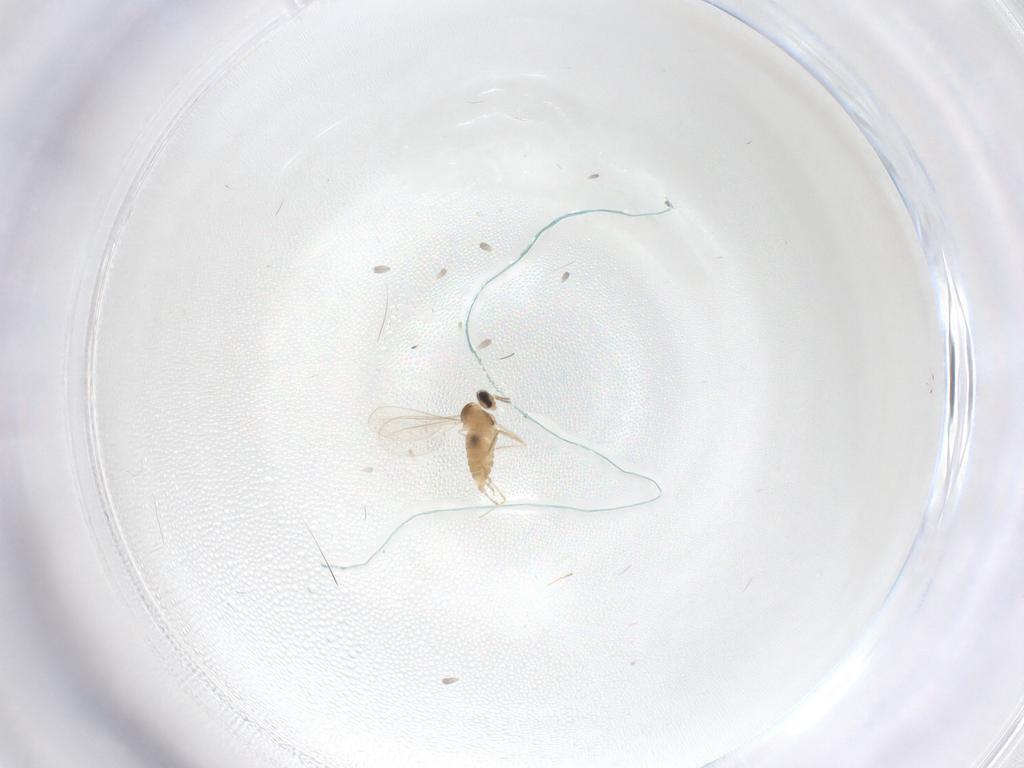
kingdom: Animalia
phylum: Arthropoda
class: Insecta
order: Diptera
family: Cecidomyiidae
